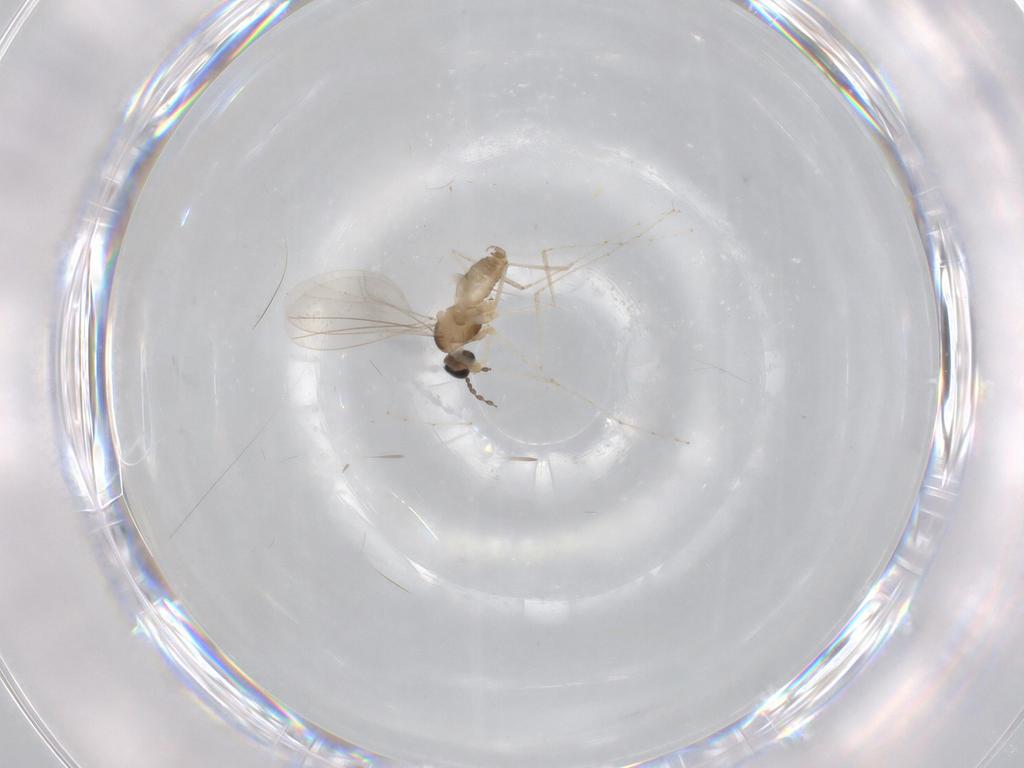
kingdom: Animalia
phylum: Arthropoda
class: Insecta
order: Diptera
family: Cecidomyiidae
